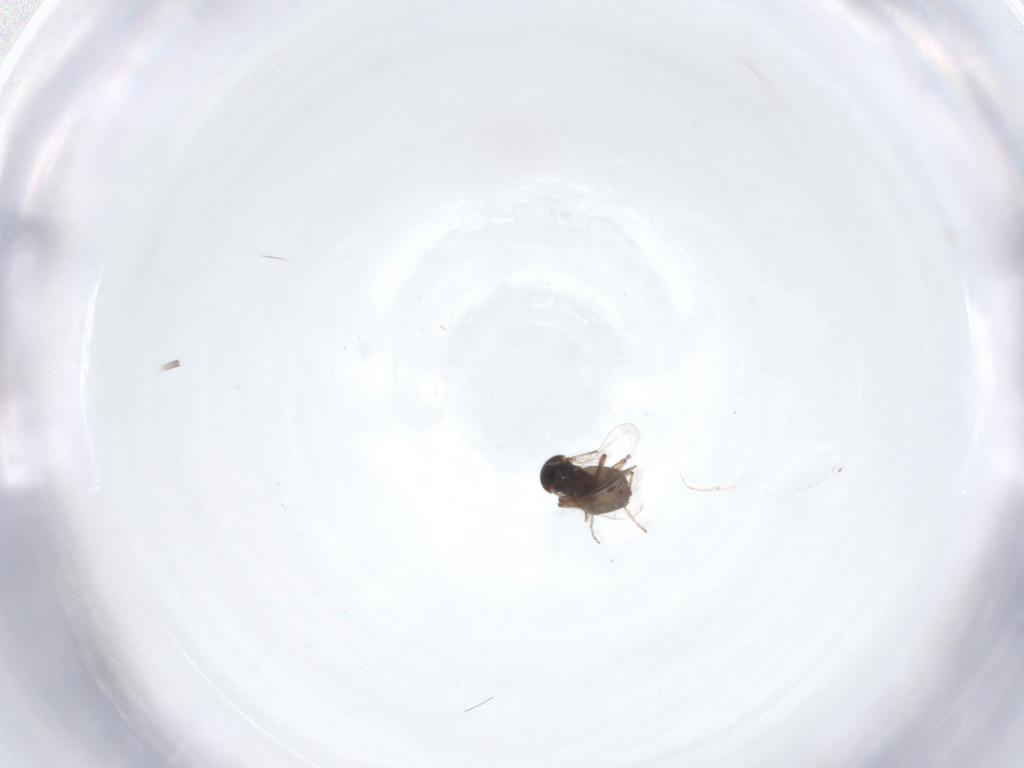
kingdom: Animalia
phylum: Arthropoda
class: Insecta
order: Diptera
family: Ceratopogonidae
